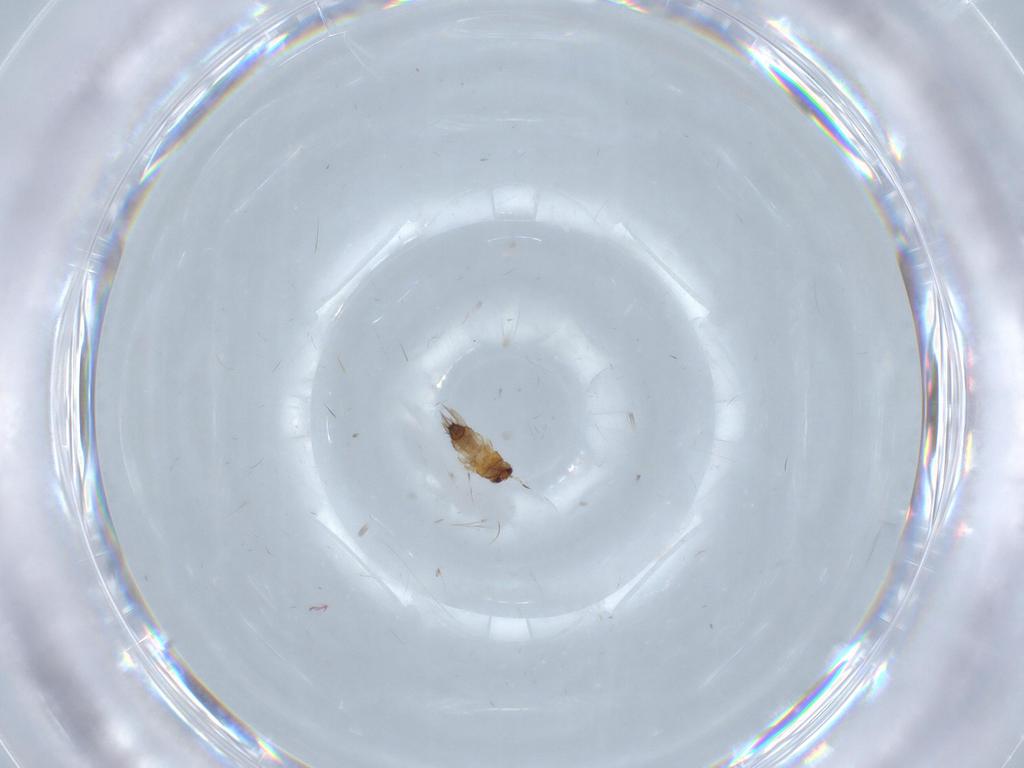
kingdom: Animalia
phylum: Arthropoda
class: Insecta
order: Thysanoptera
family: Thripidae
